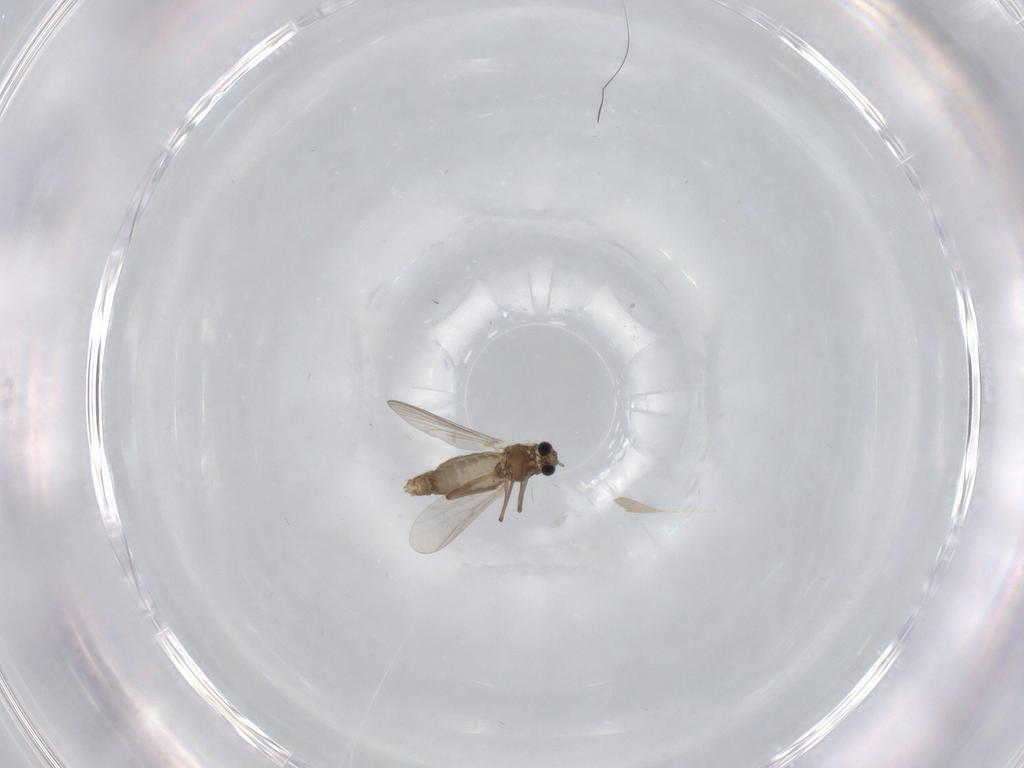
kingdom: Animalia
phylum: Arthropoda
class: Insecta
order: Diptera
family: Chironomidae
